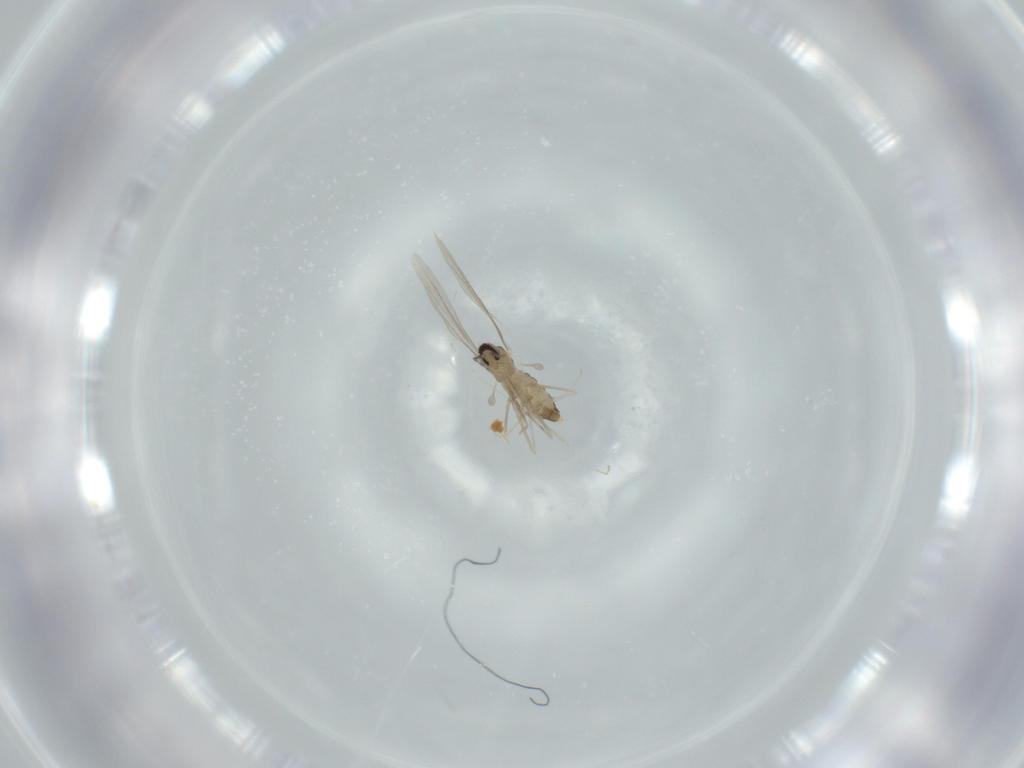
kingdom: Animalia
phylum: Arthropoda
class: Insecta
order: Diptera
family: Cecidomyiidae
